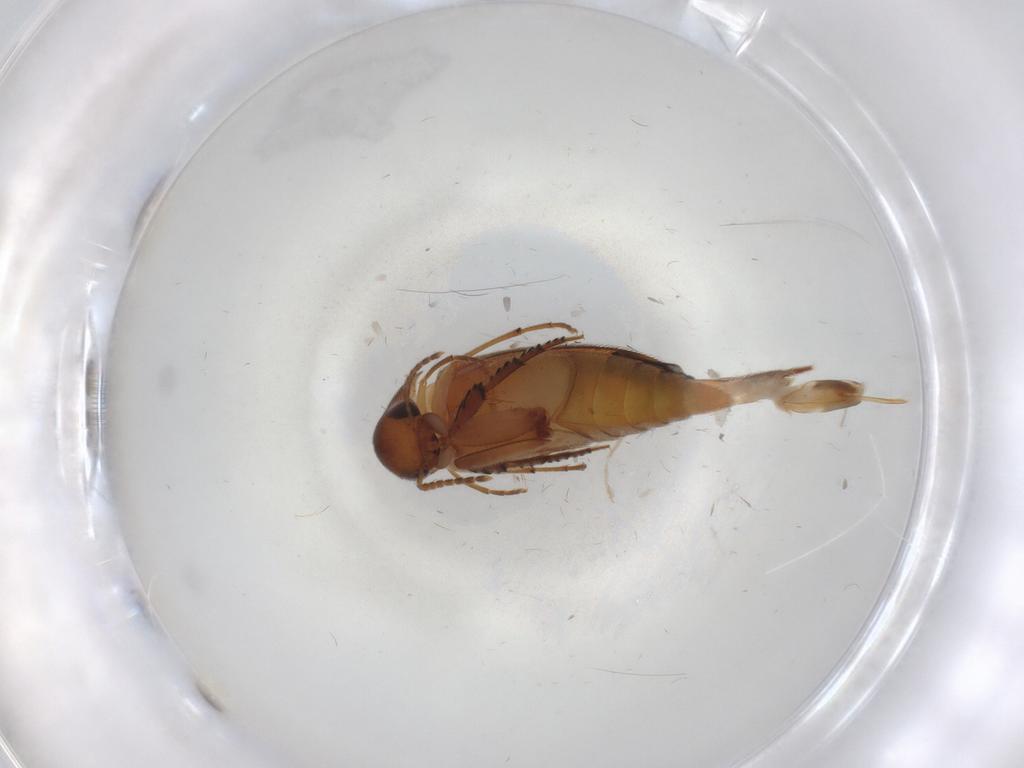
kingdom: Animalia
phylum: Arthropoda
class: Insecta
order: Coleoptera
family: Mordellidae
